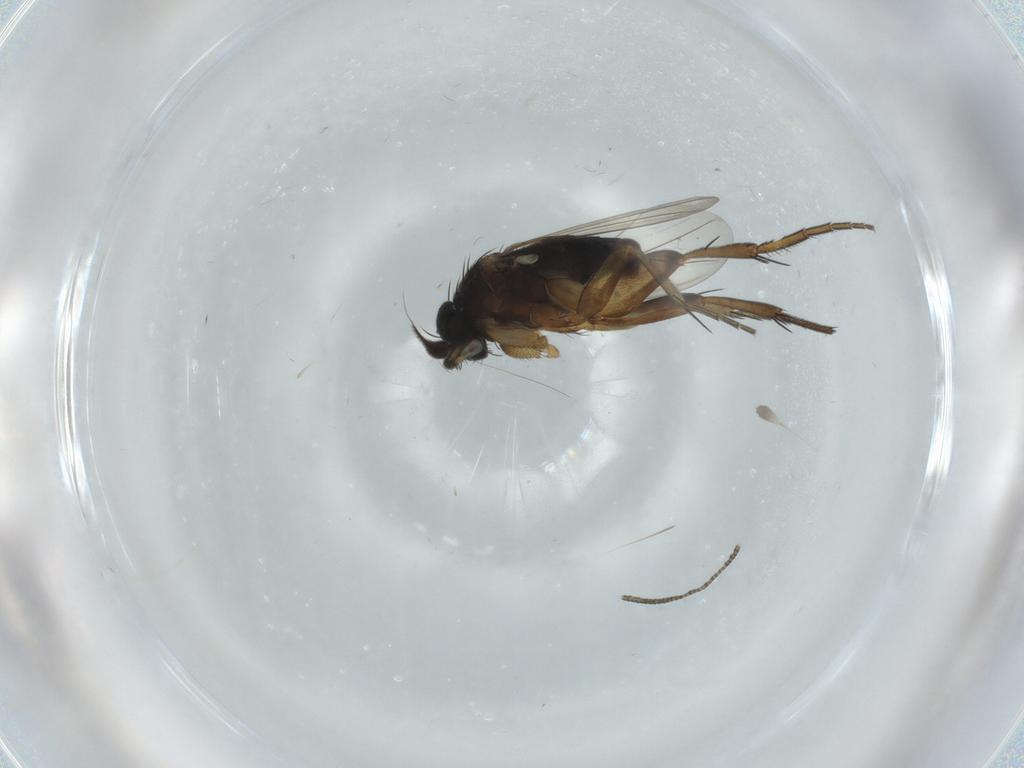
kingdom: Animalia
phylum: Arthropoda
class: Insecta
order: Diptera
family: Phoridae
